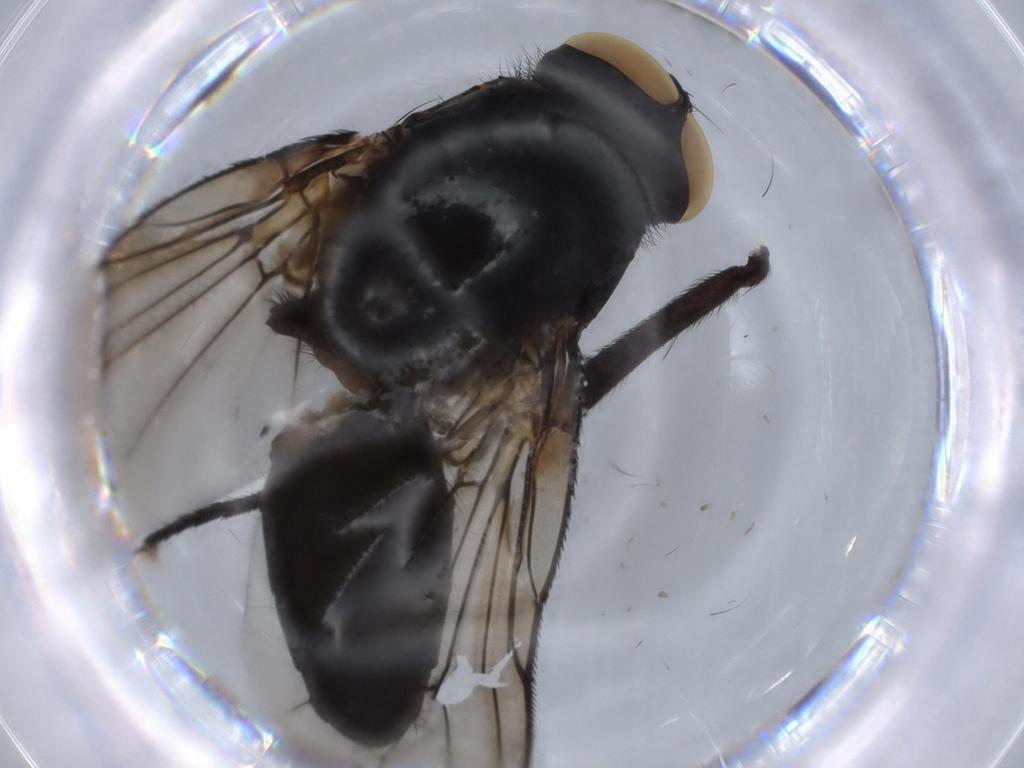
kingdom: Animalia
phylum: Arthropoda
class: Insecta
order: Diptera
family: Anthomyiidae
